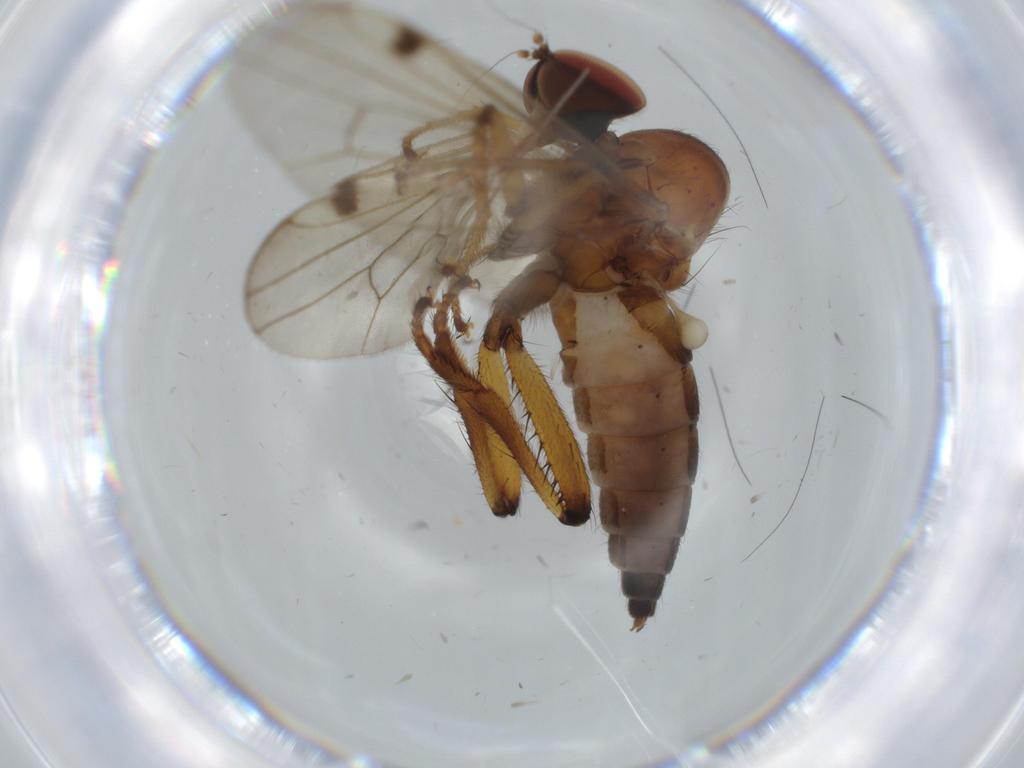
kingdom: Animalia
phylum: Arthropoda
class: Insecta
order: Diptera
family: Hybotidae
